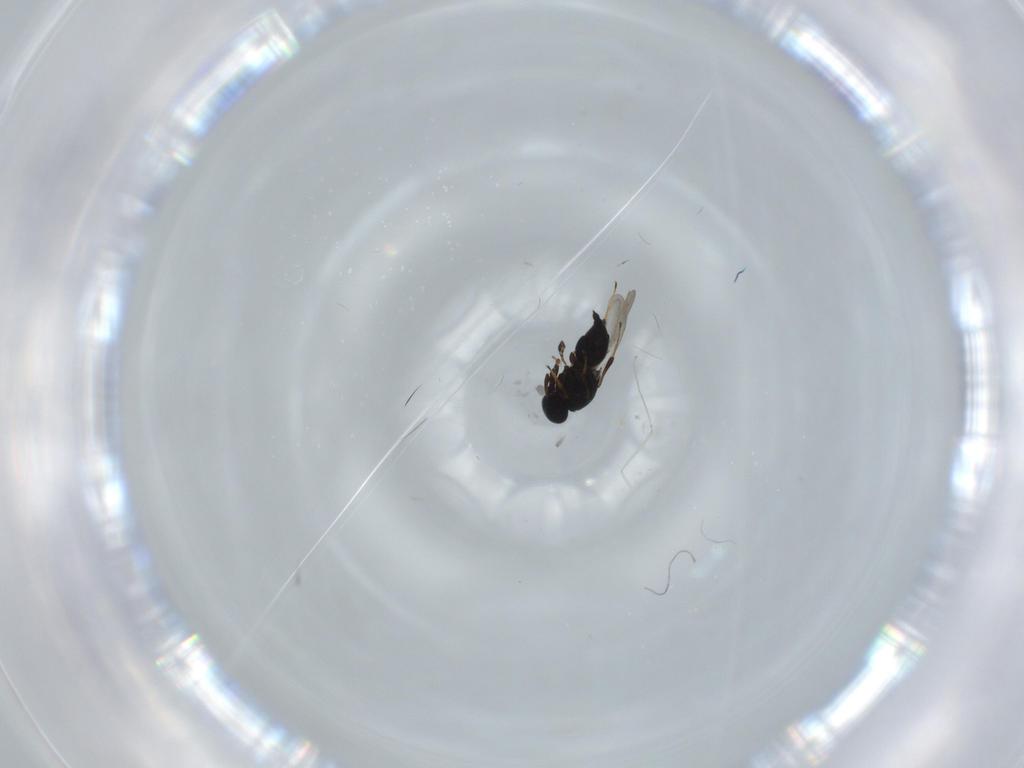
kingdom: Animalia
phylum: Arthropoda
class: Insecta
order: Hymenoptera
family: Platygastridae
